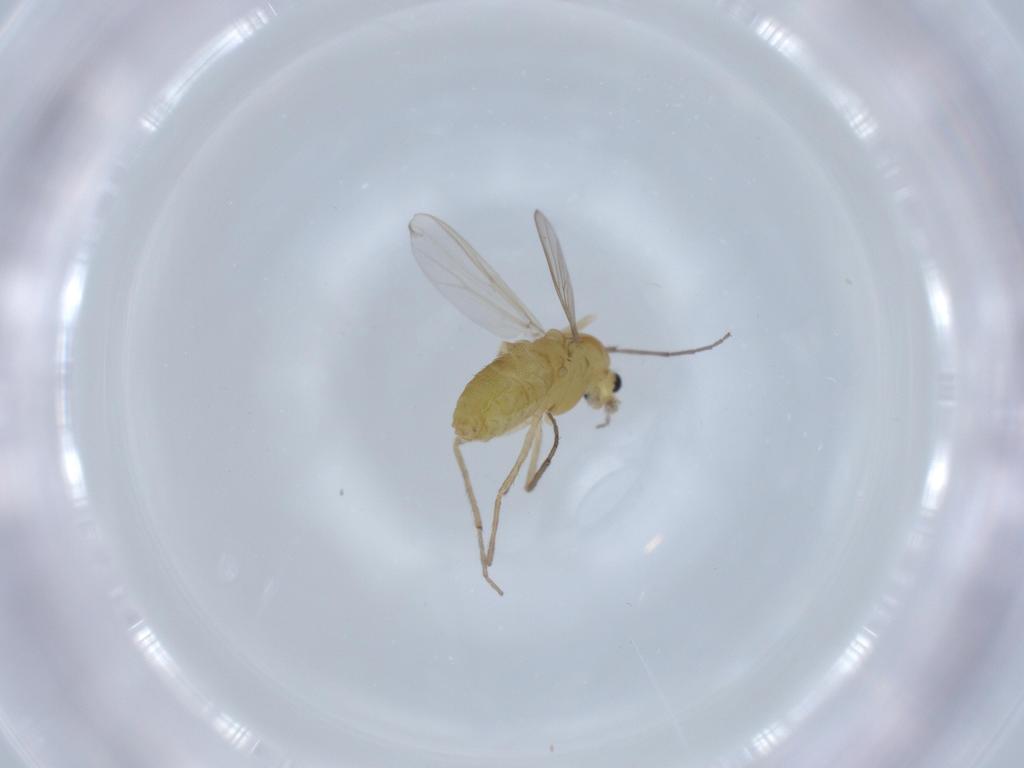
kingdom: Animalia
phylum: Arthropoda
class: Insecta
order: Diptera
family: Chironomidae
